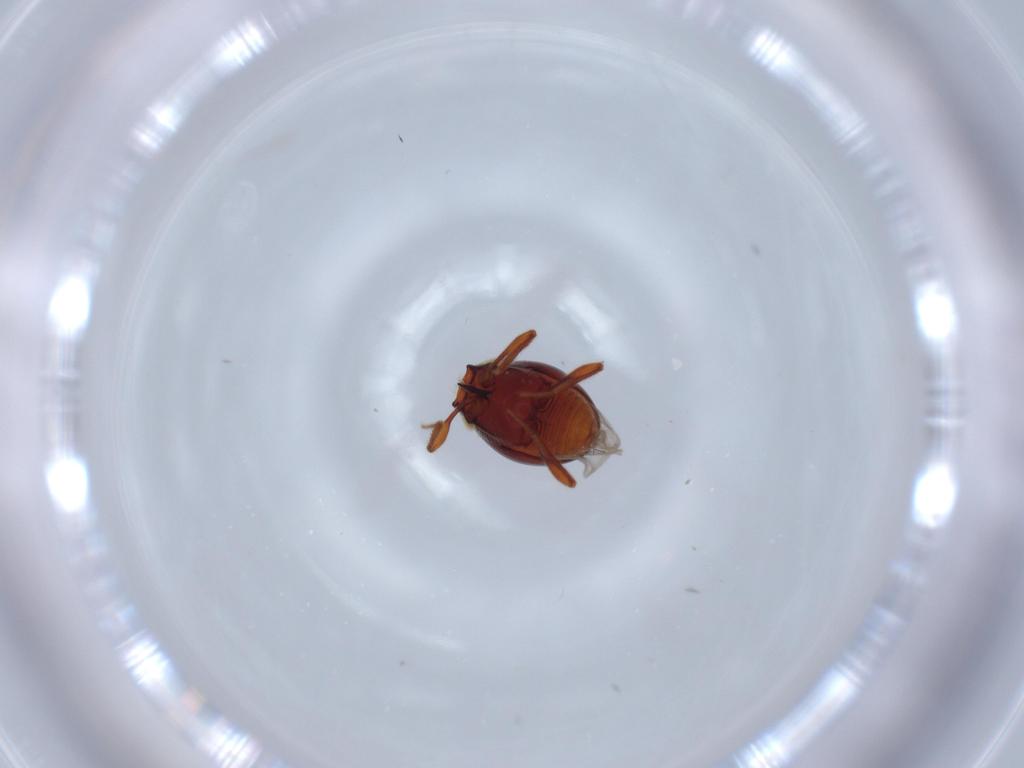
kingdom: Animalia
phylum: Arthropoda
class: Insecta
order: Coleoptera
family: Staphylinidae
